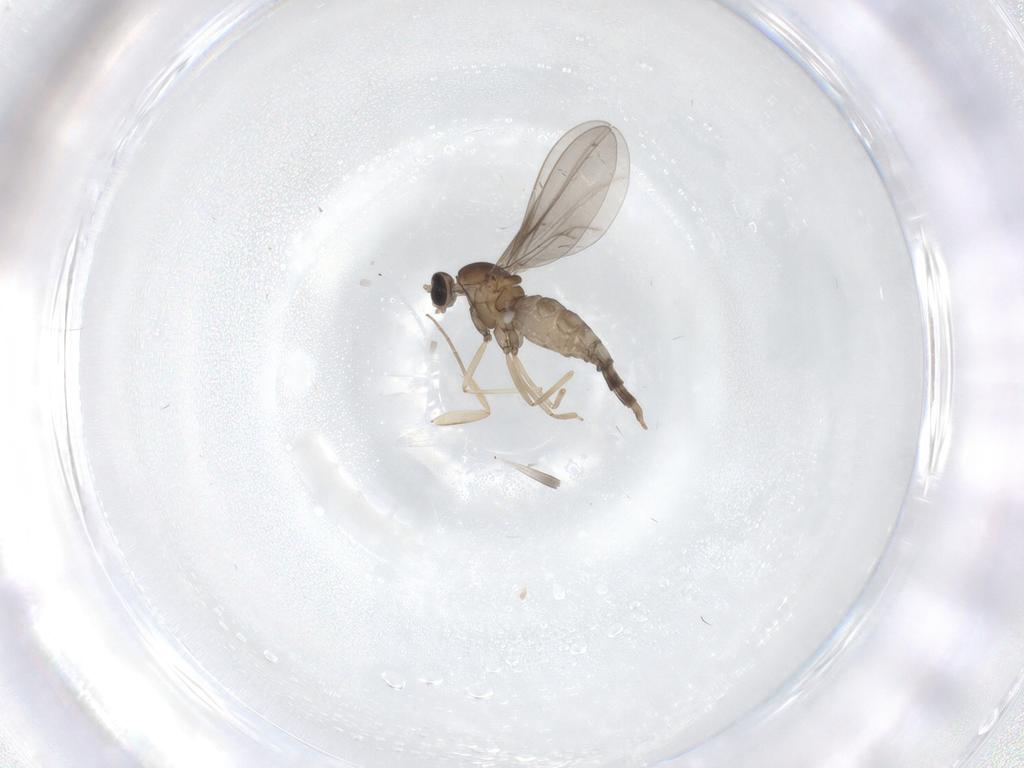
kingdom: Animalia
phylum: Arthropoda
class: Insecta
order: Diptera
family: Cecidomyiidae
